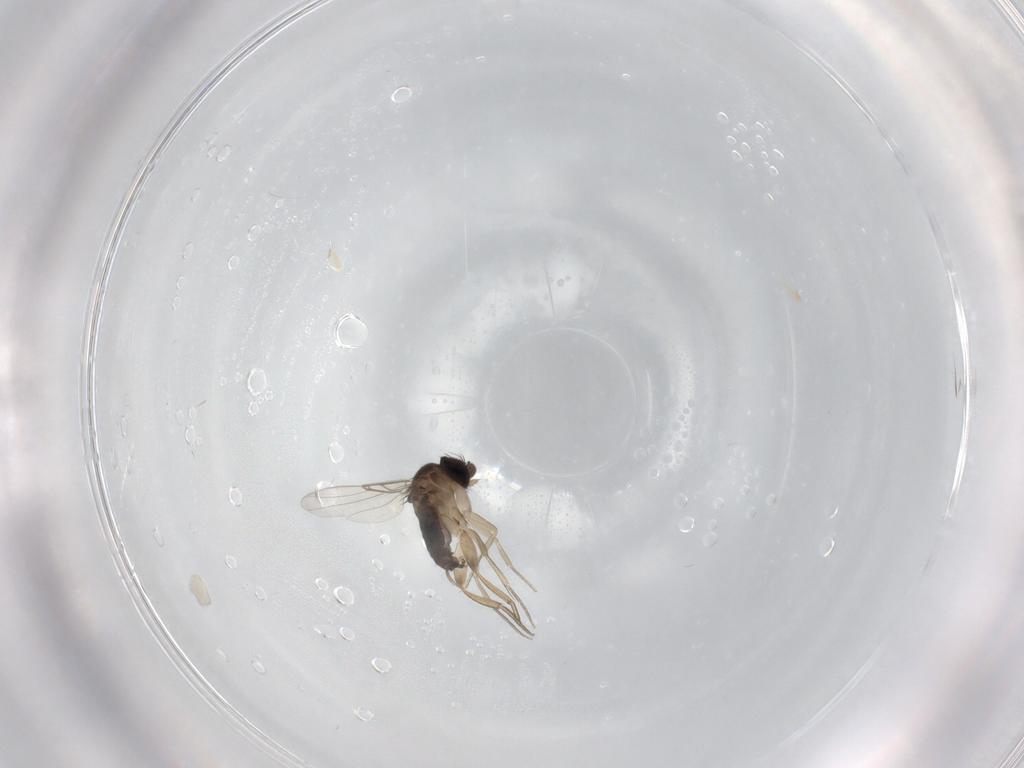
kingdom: Animalia
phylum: Arthropoda
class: Insecta
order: Diptera
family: Phoridae
